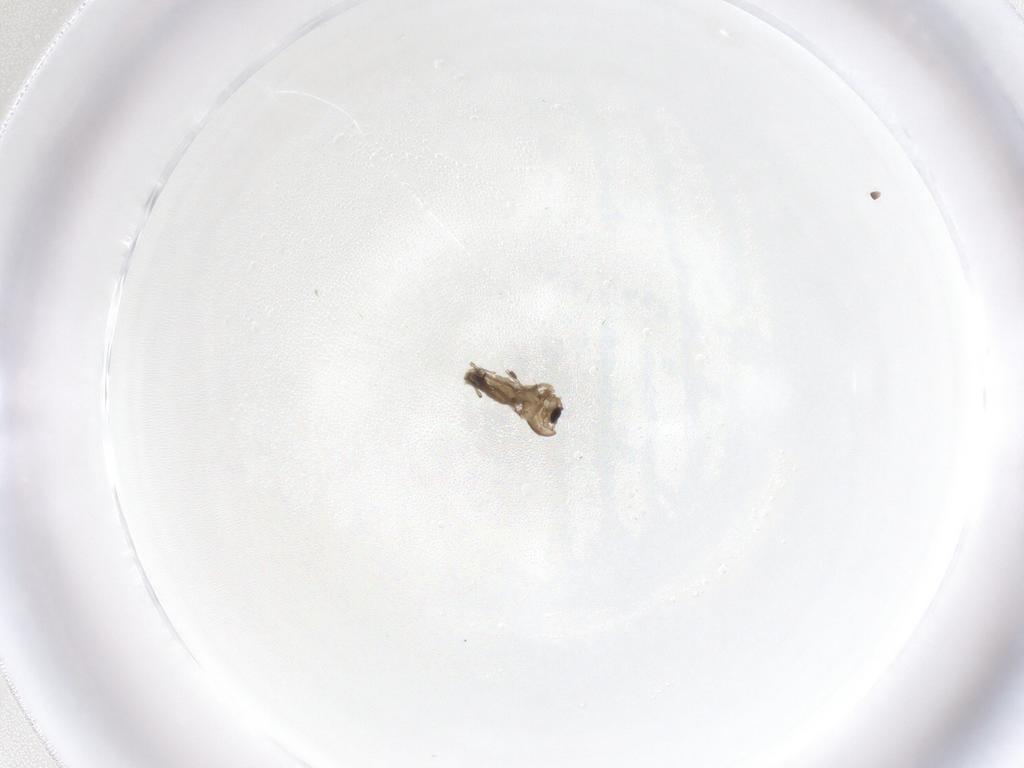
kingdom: Animalia
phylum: Arthropoda
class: Insecta
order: Diptera
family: Chironomidae
